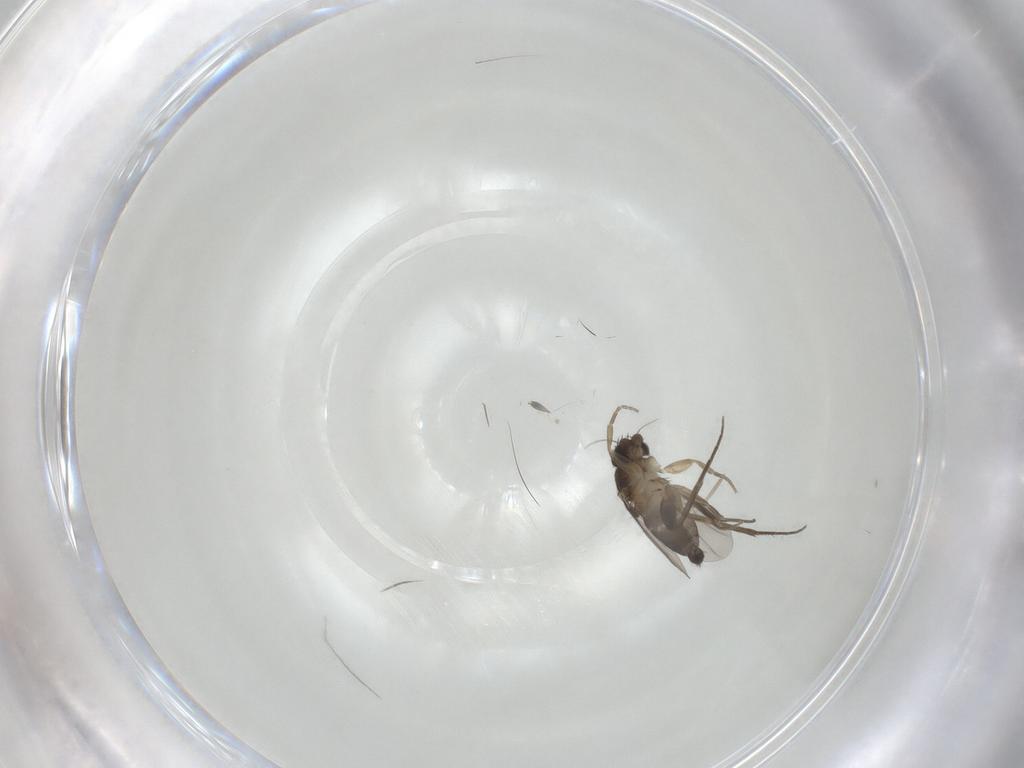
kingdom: Animalia
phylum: Arthropoda
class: Insecta
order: Diptera
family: Phoridae
